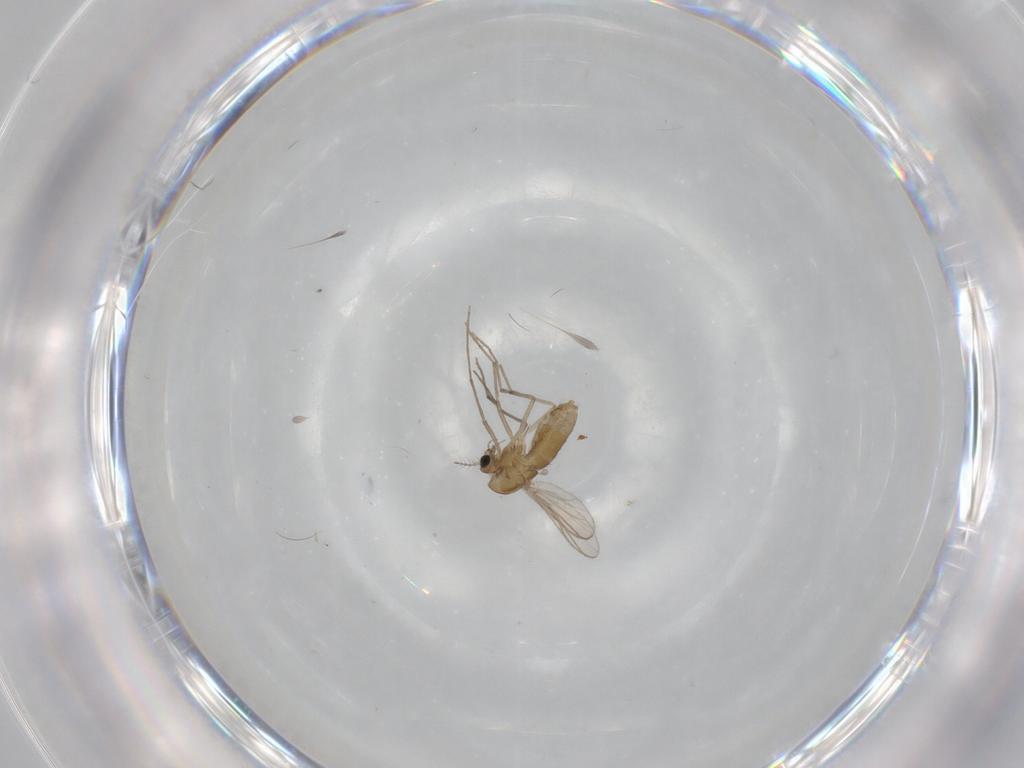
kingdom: Animalia
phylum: Arthropoda
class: Insecta
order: Diptera
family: Chironomidae
